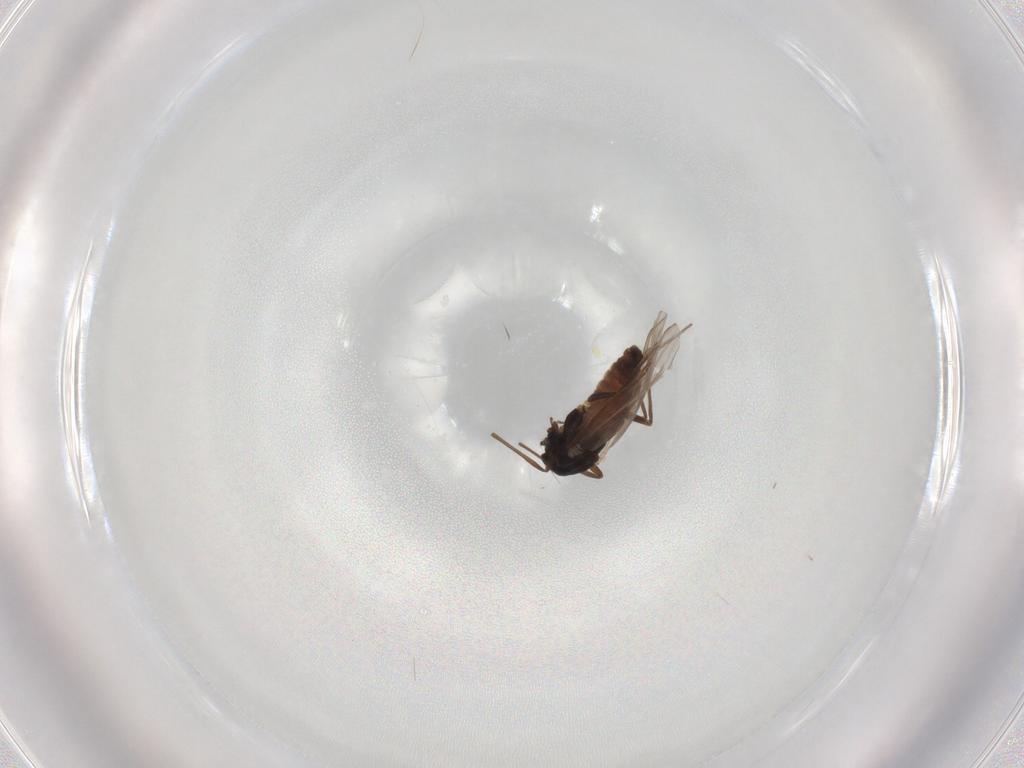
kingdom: Animalia
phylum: Arthropoda
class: Insecta
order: Diptera
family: Chironomidae
